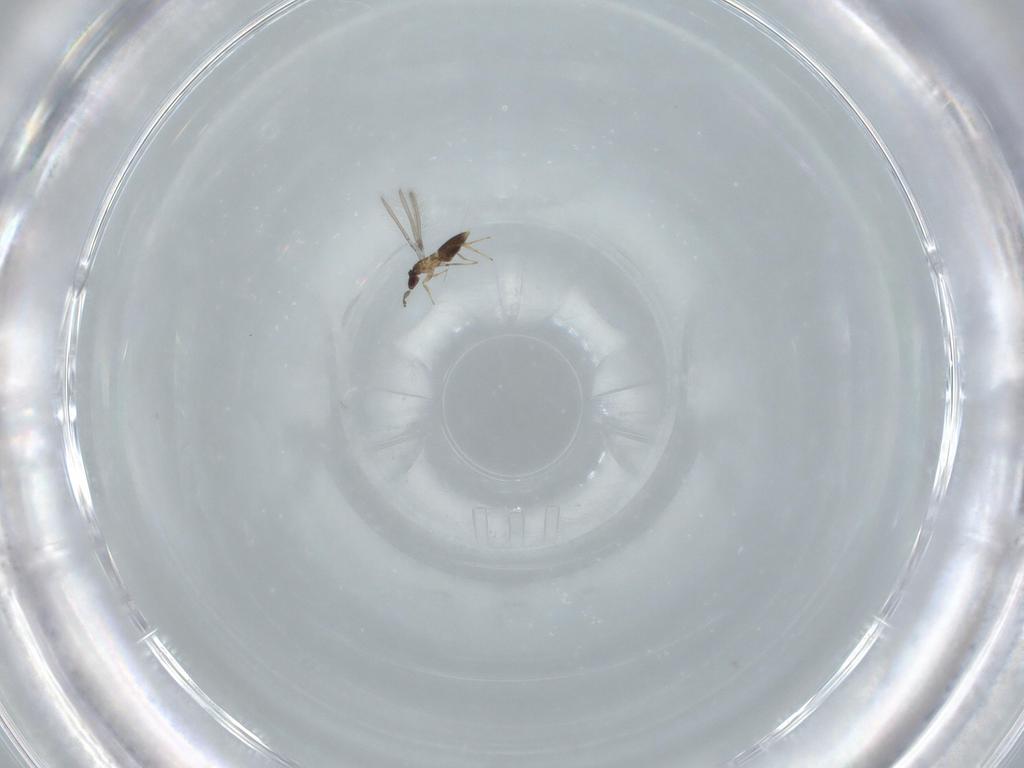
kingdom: Animalia
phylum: Arthropoda
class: Insecta
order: Hymenoptera
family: Mymaridae
